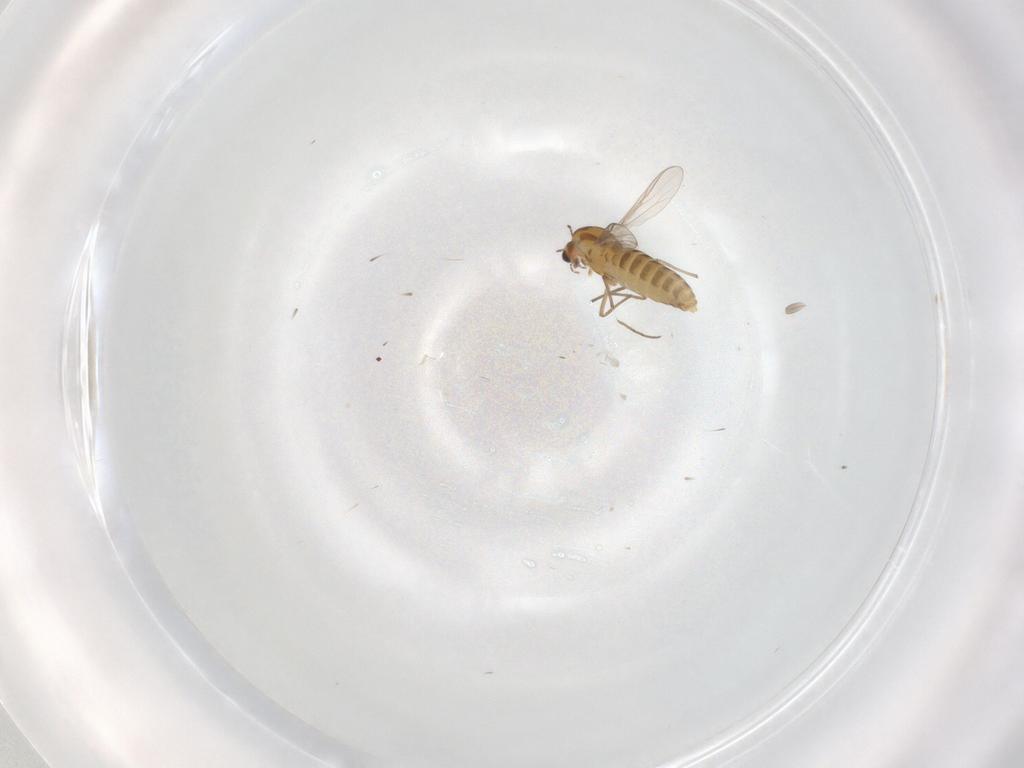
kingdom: Animalia
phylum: Arthropoda
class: Insecta
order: Diptera
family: Chironomidae
